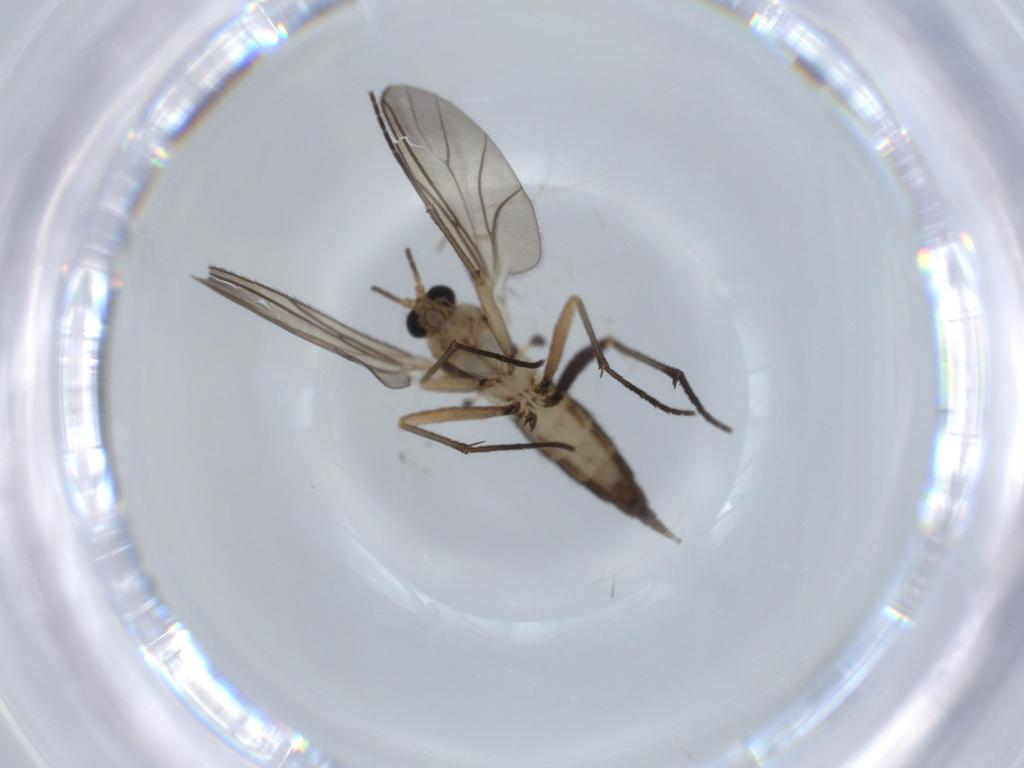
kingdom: Animalia
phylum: Arthropoda
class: Insecta
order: Diptera
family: Sciaridae
